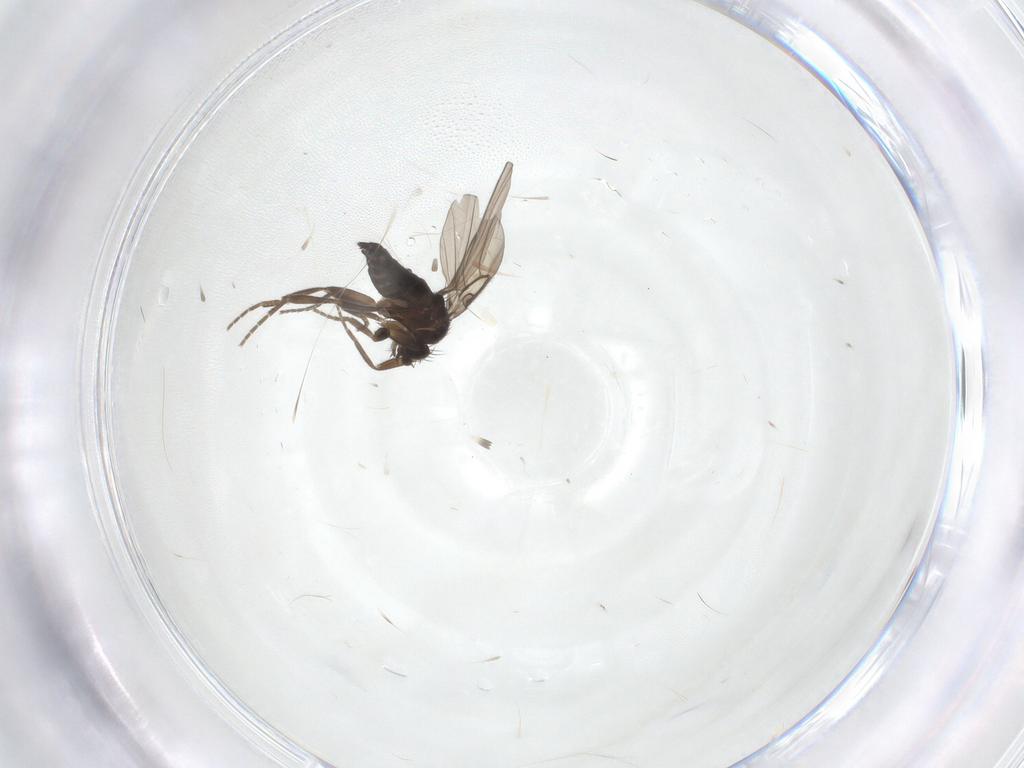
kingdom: Animalia
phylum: Arthropoda
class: Insecta
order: Diptera
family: Phoridae
